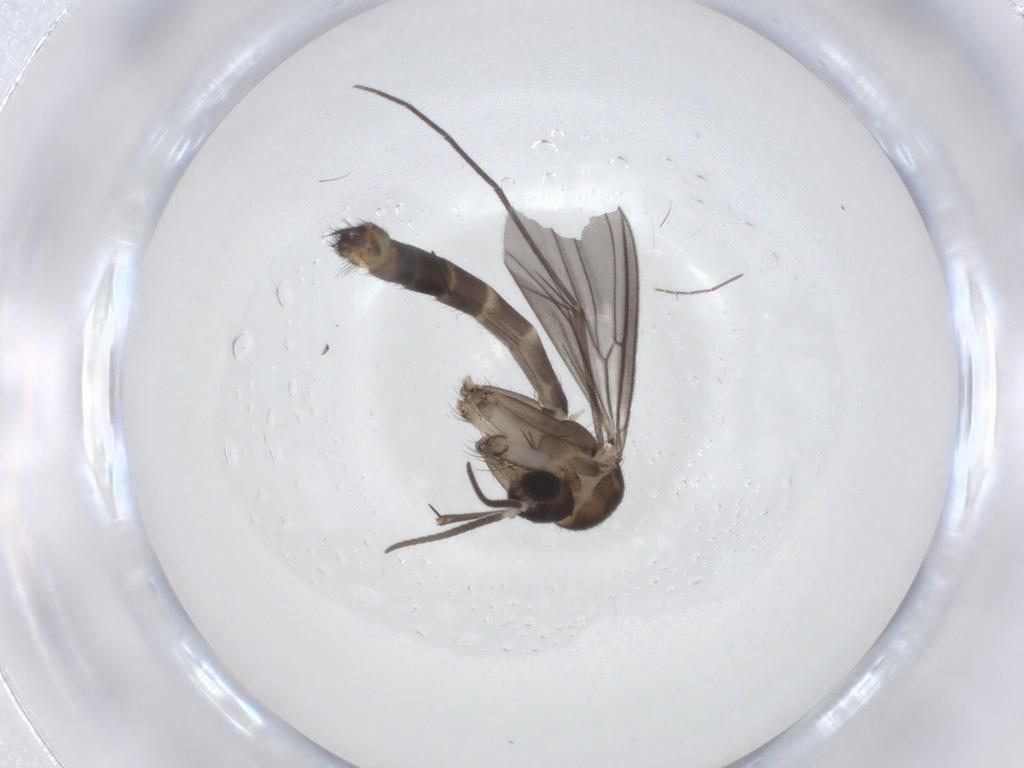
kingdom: Animalia
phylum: Arthropoda
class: Insecta
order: Diptera
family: Mycetophilidae
